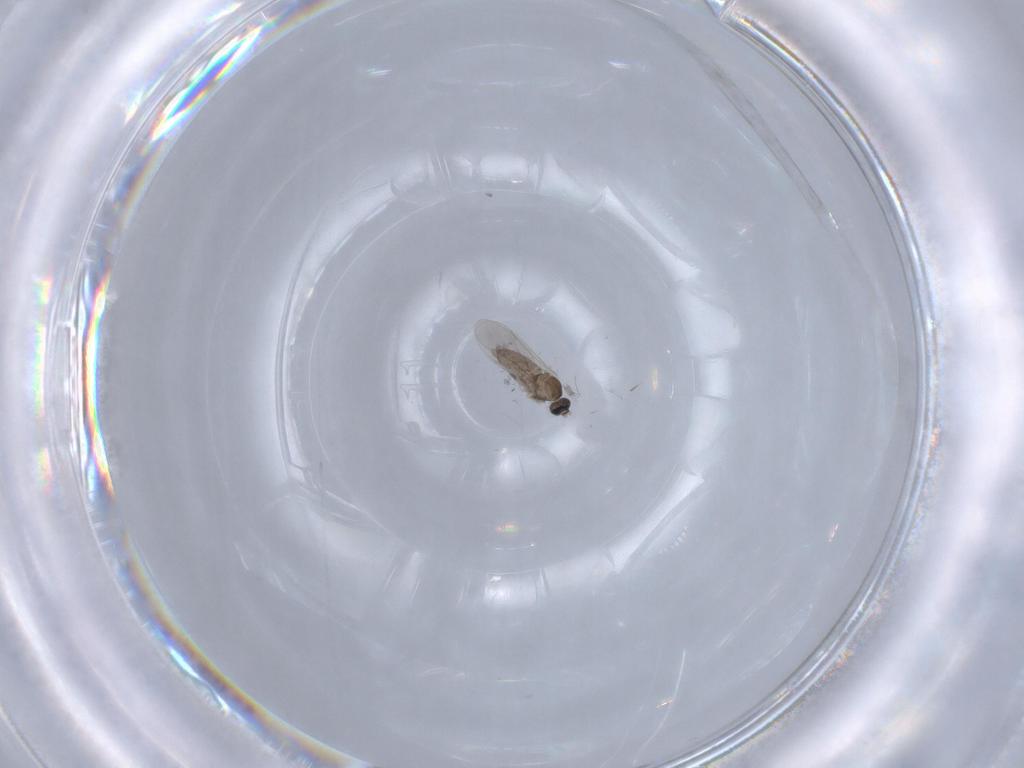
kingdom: Animalia
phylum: Arthropoda
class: Insecta
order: Diptera
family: Cecidomyiidae
